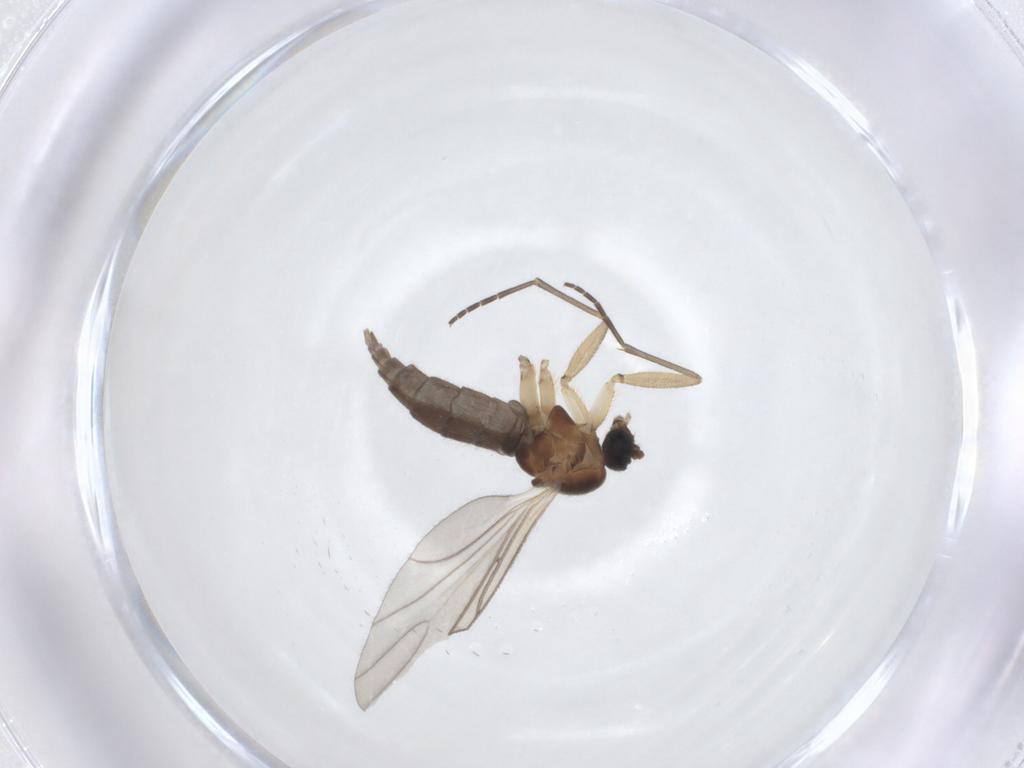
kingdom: Animalia
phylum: Arthropoda
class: Insecta
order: Diptera
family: Sciaridae
